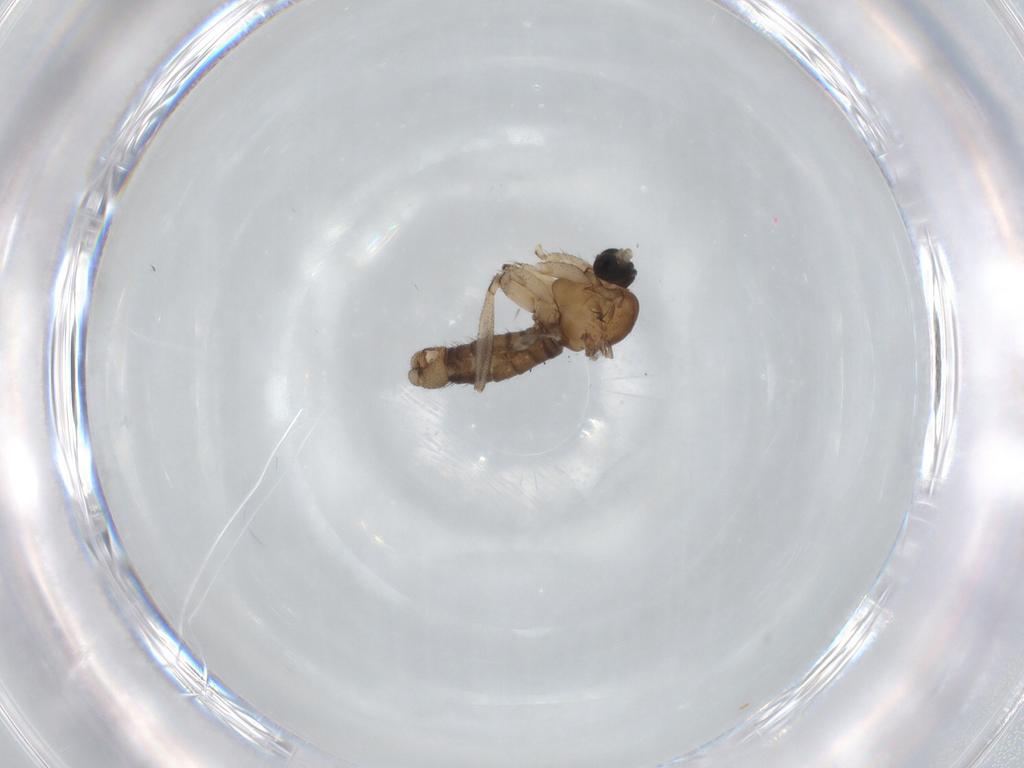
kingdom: Animalia
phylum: Arthropoda
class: Insecta
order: Diptera
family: Sciaridae
